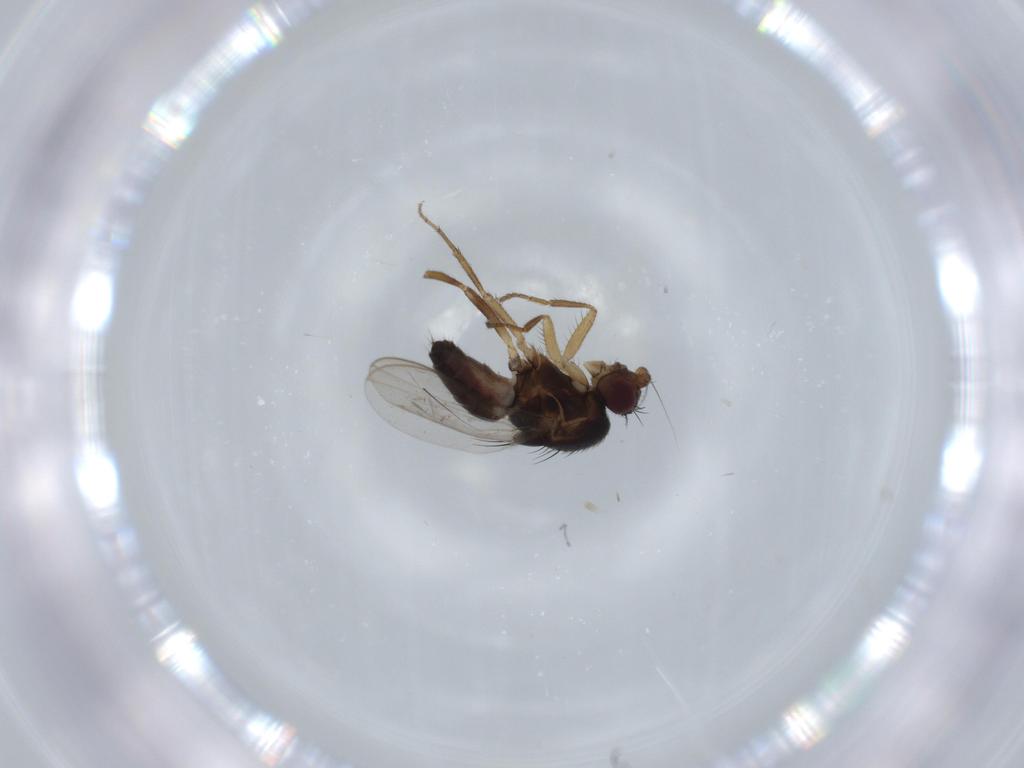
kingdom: Animalia
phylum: Arthropoda
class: Insecta
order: Diptera
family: Sphaeroceridae
